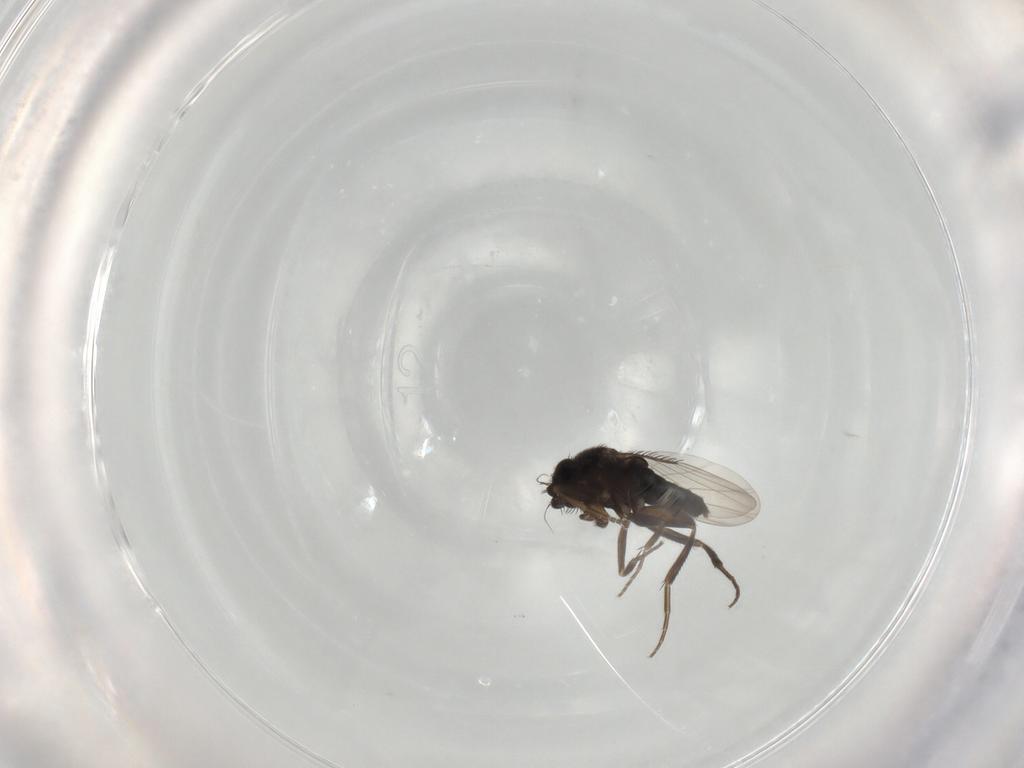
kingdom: Animalia
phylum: Arthropoda
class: Insecta
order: Diptera
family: Phoridae
